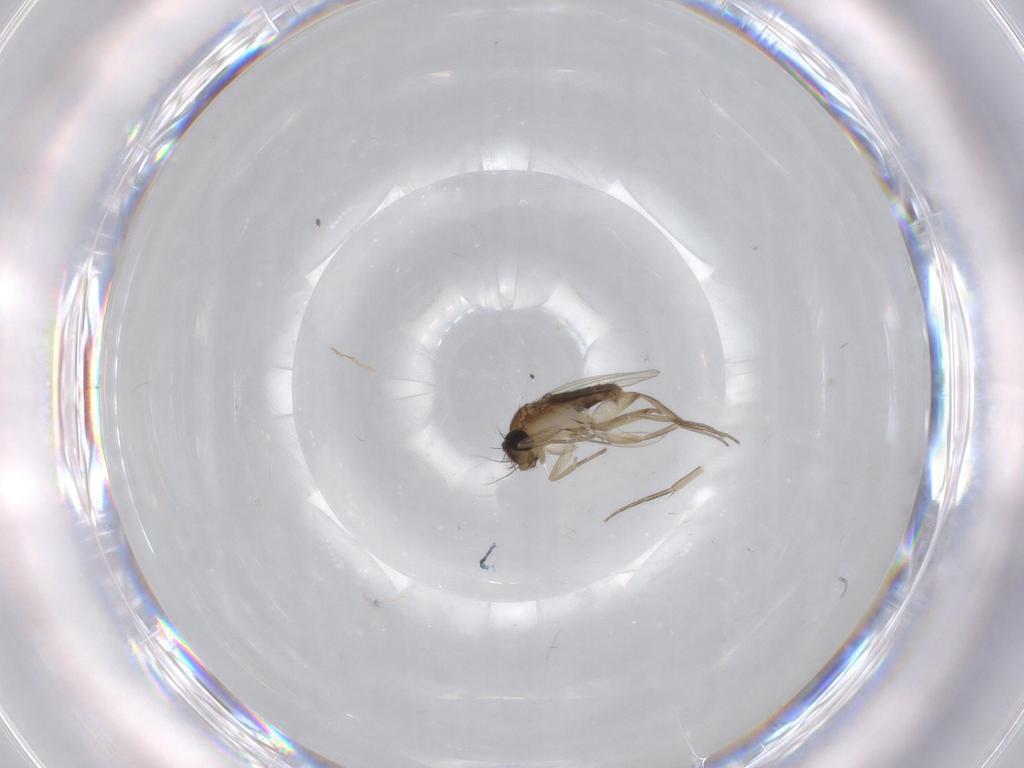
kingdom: Animalia
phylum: Arthropoda
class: Insecta
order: Diptera
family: Phoridae
